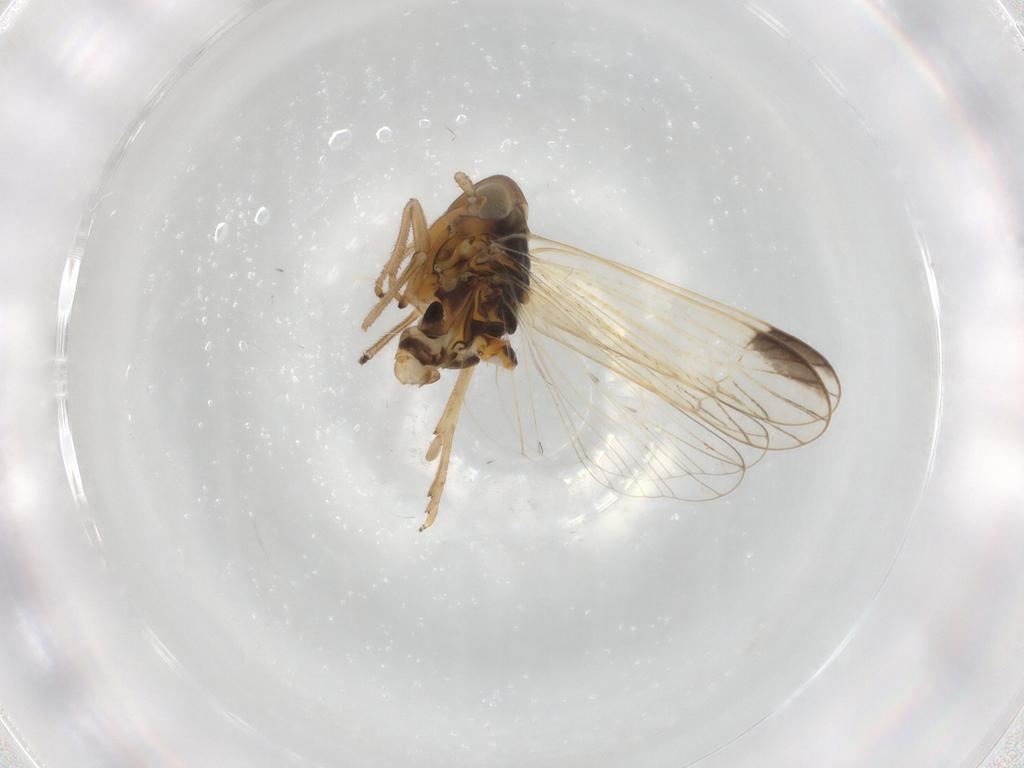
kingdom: Animalia
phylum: Arthropoda
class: Insecta
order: Hemiptera
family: Delphacidae
